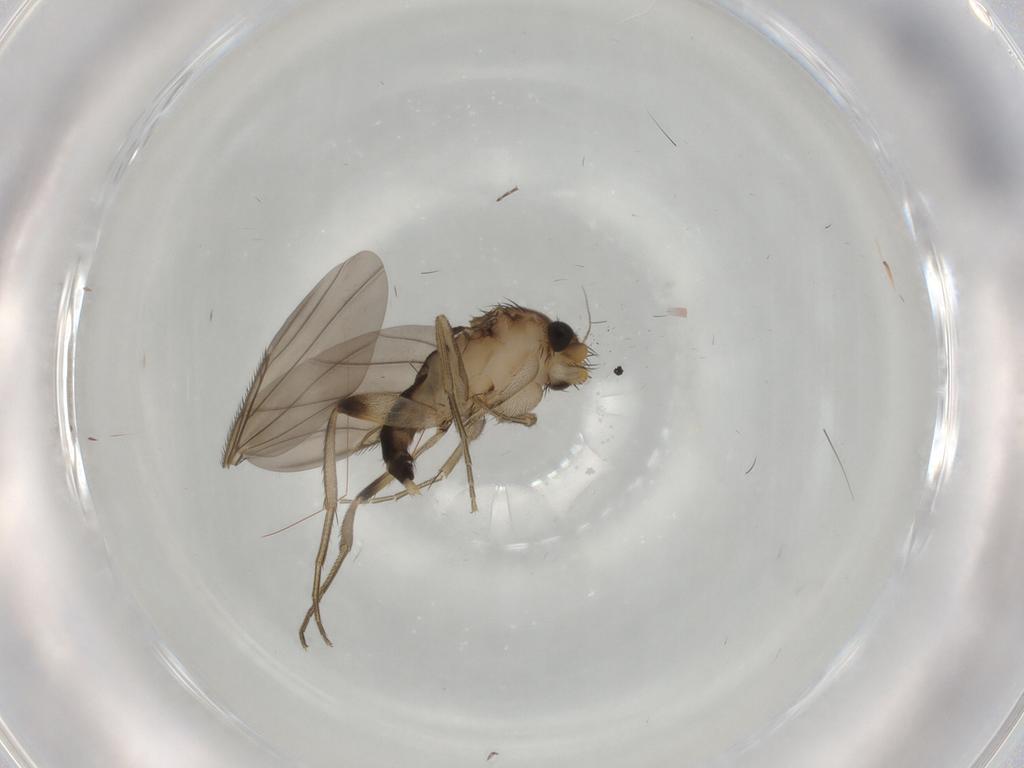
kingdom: Animalia
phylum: Arthropoda
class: Insecta
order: Diptera
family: Phoridae
